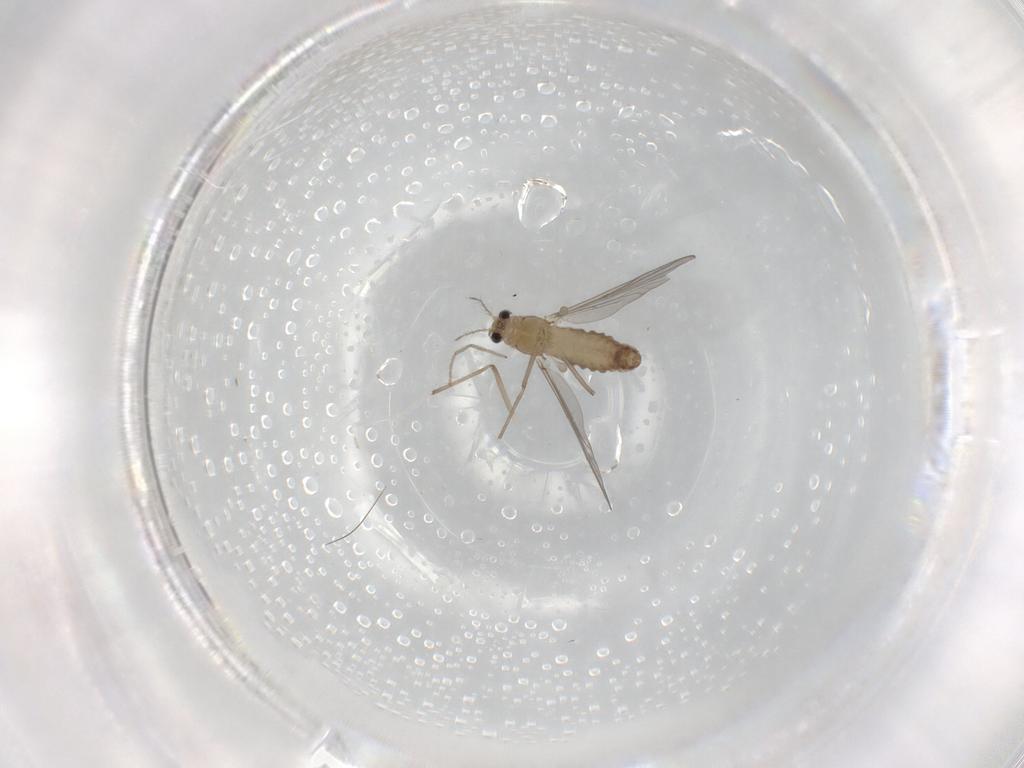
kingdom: Animalia
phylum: Arthropoda
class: Insecta
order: Diptera
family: Chironomidae
